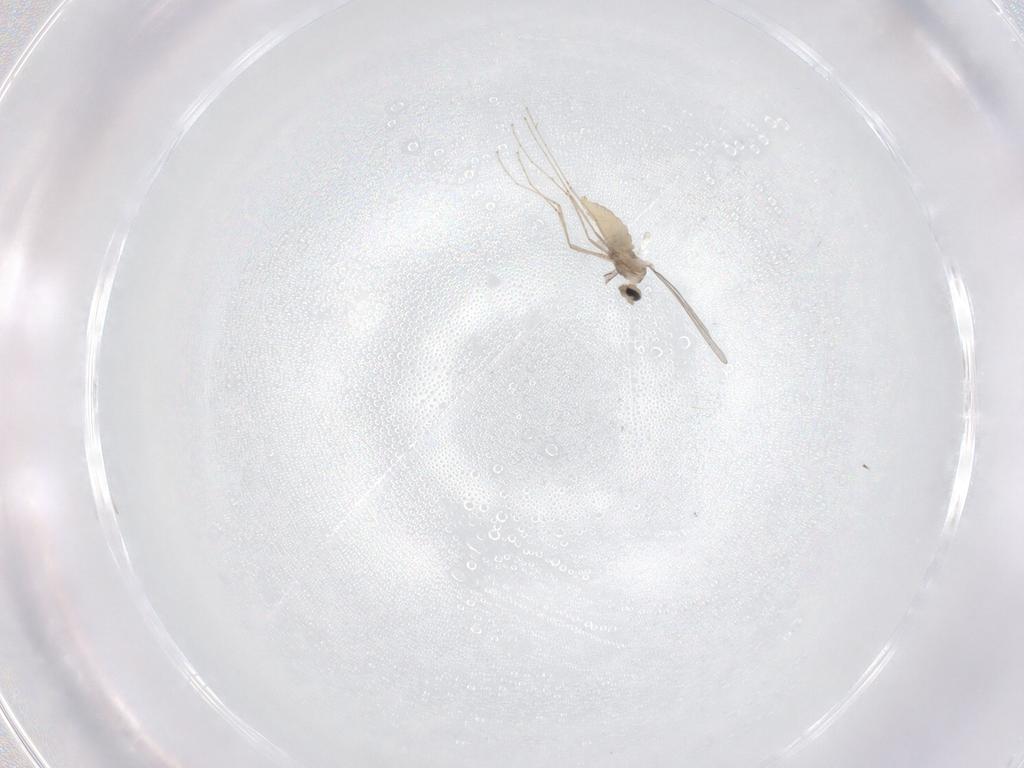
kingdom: Animalia
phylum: Arthropoda
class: Insecta
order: Diptera
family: Cecidomyiidae
